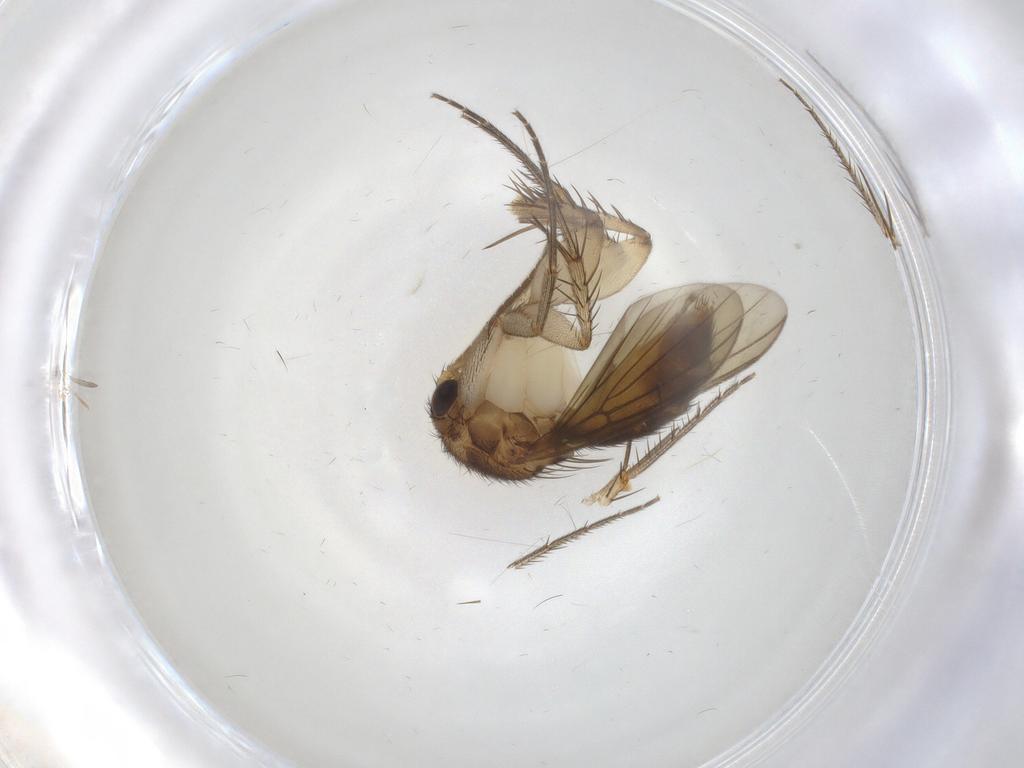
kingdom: Animalia
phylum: Arthropoda
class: Insecta
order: Diptera
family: Mycetophilidae
